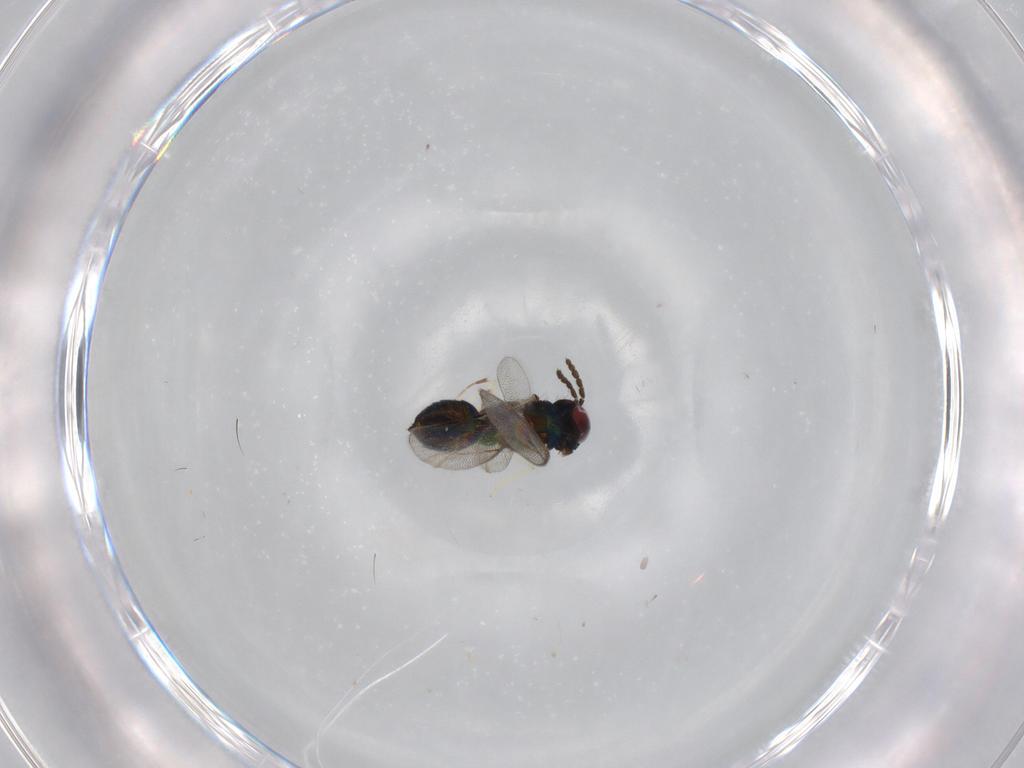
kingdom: Animalia
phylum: Arthropoda
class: Insecta
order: Hymenoptera
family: Eulophidae
